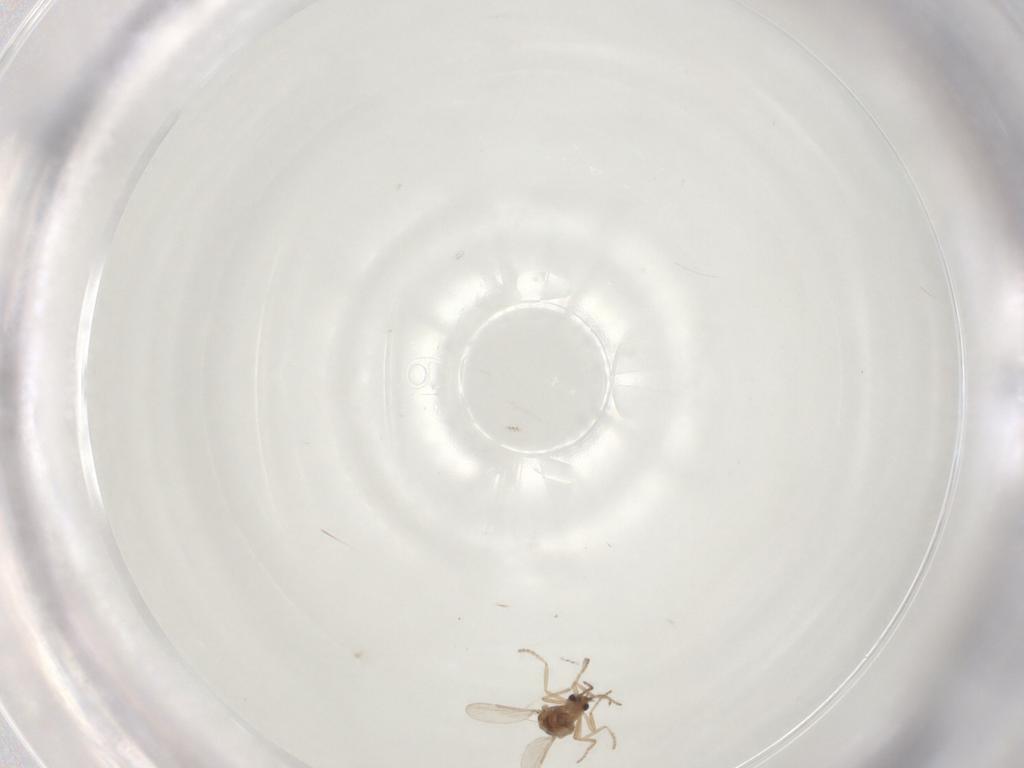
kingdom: Animalia
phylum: Arthropoda
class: Insecta
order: Diptera
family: Ceratopogonidae
